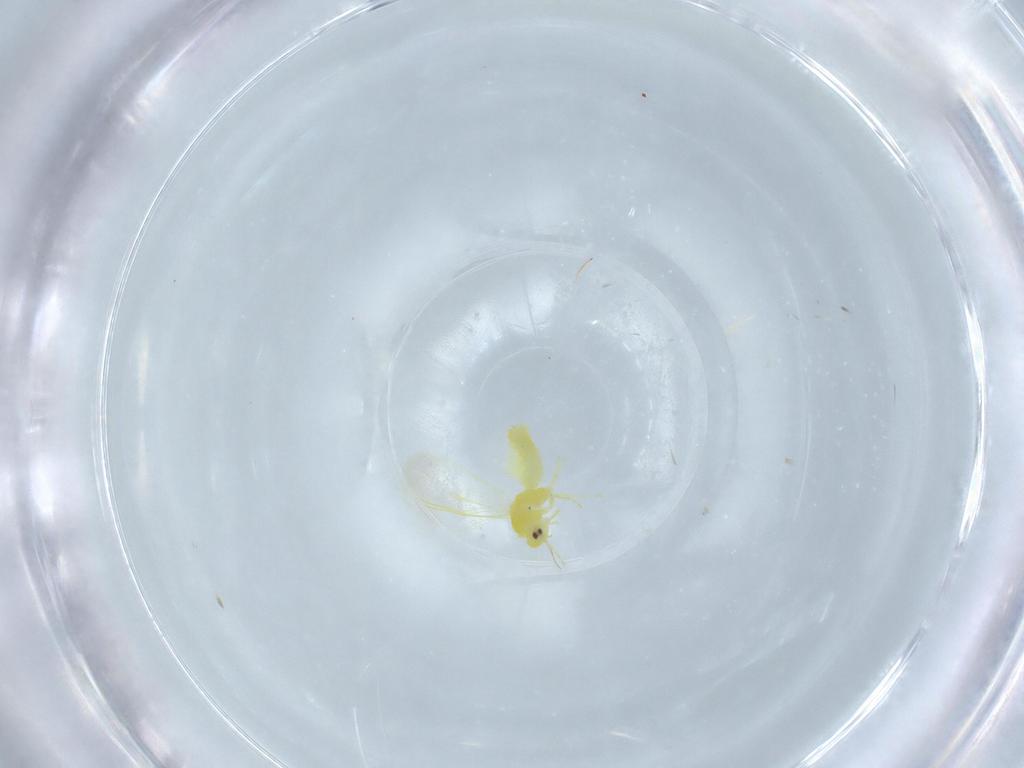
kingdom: Animalia
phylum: Arthropoda
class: Insecta
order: Hemiptera
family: Aleyrodidae
